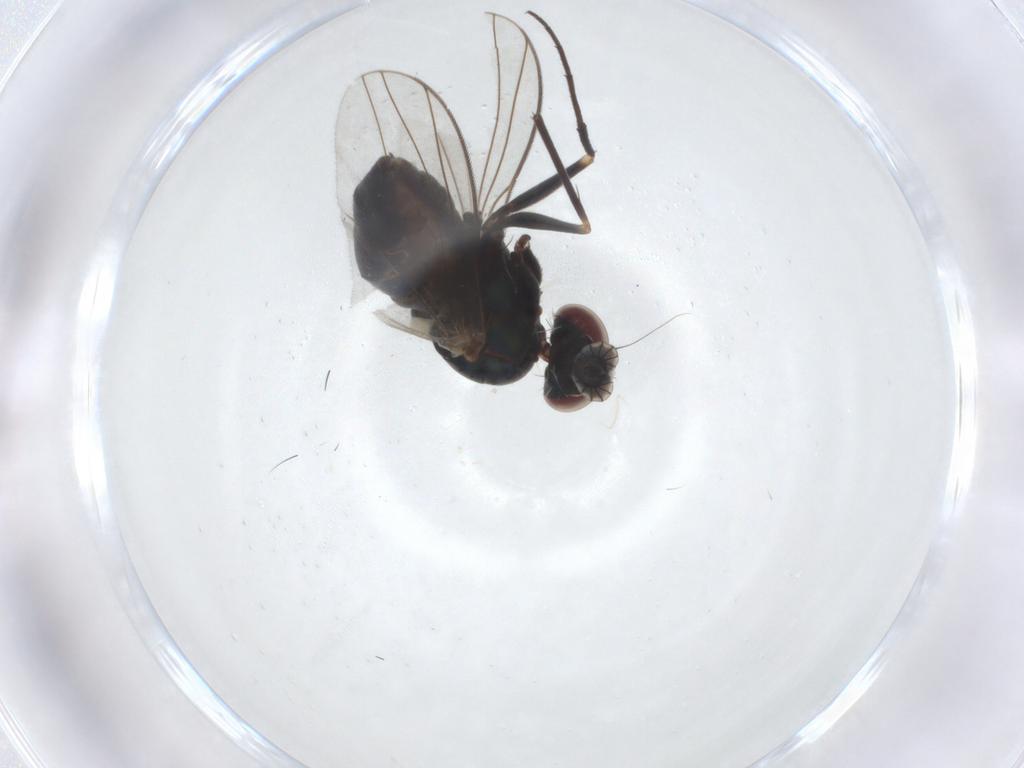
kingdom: Animalia
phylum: Arthropoda
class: Insecta
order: Diptera
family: Dolichopodidae
